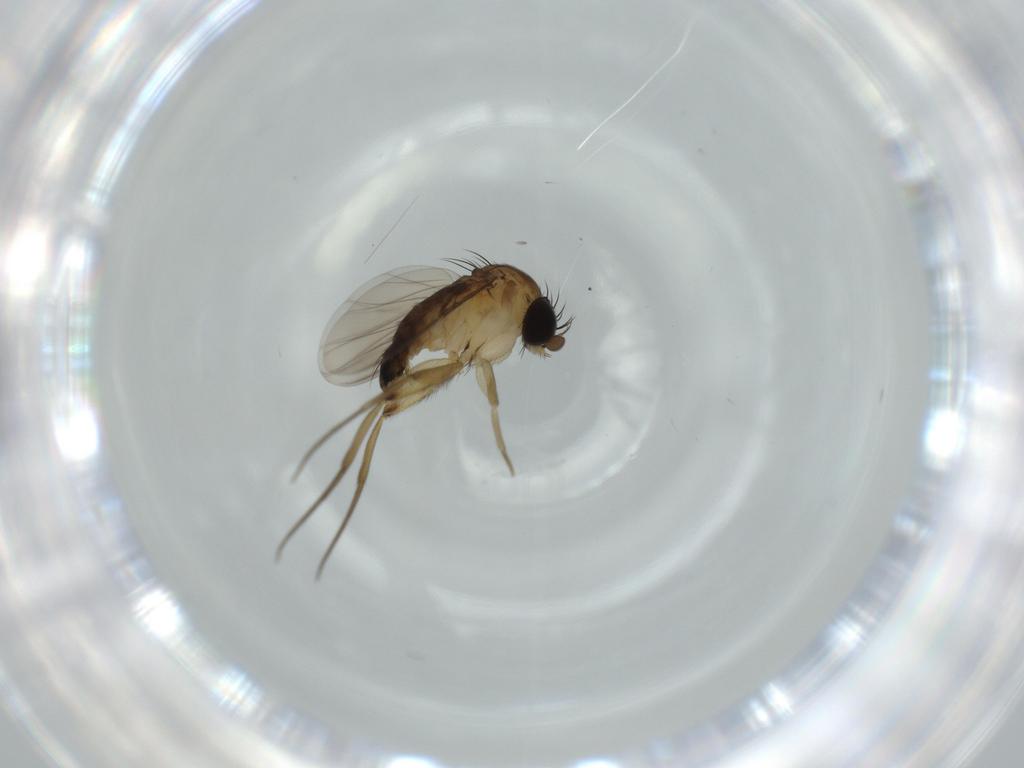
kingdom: Animalia
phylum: Arthropoda
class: Insecta
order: Diptera
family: Phoridae
